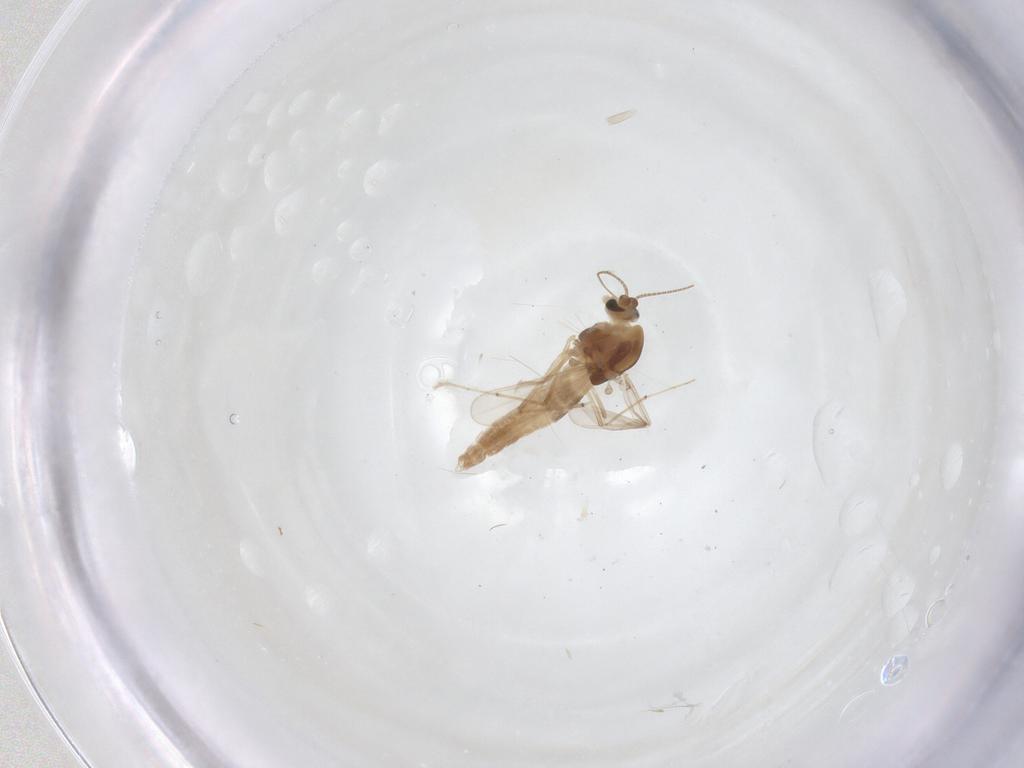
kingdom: Animalia
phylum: Arthropoda
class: Insecta
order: Diptera
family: Chironomidae
